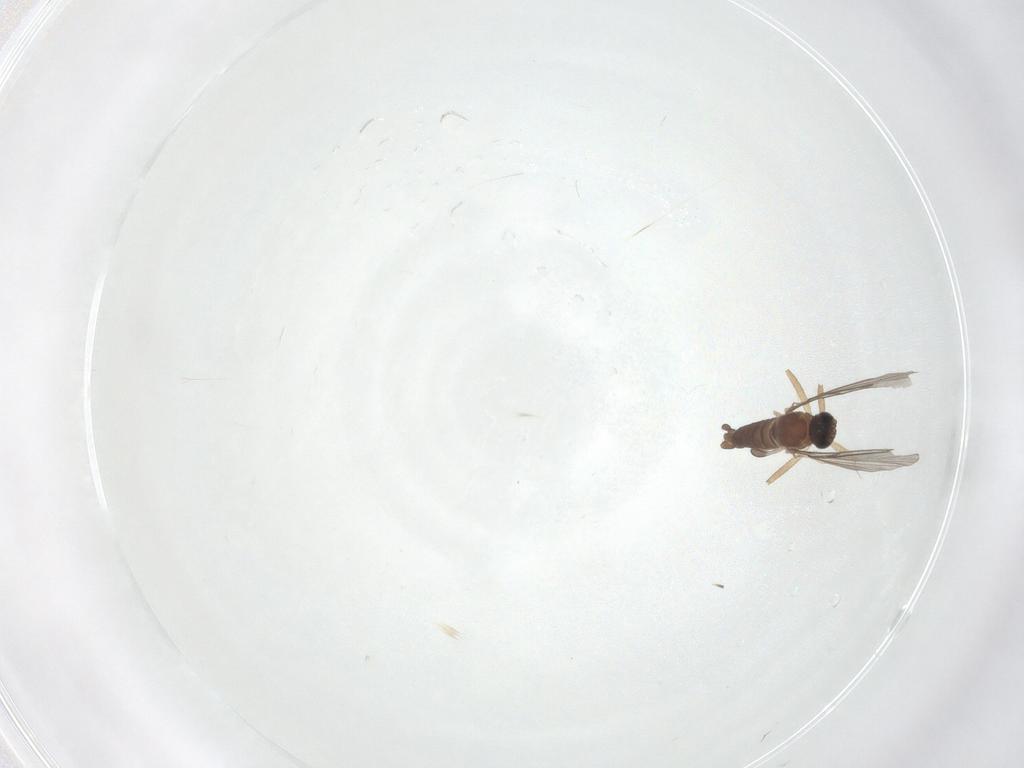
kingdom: Animalia
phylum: Arthropoda
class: Insecta
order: Diptera
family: Sciaridae
